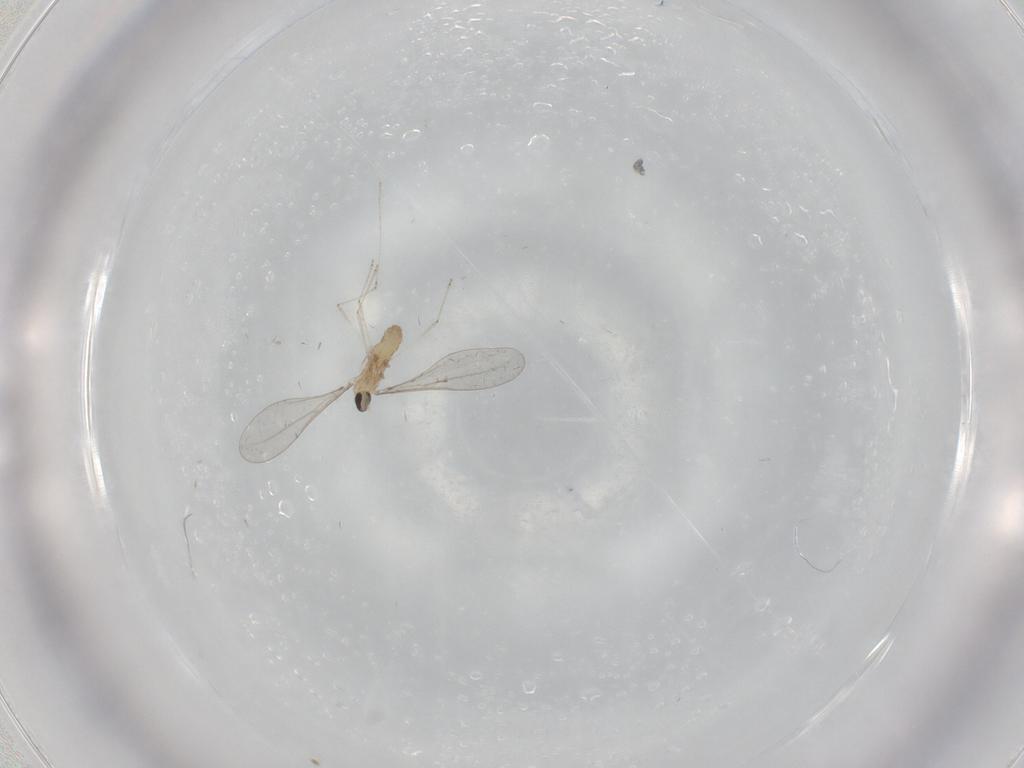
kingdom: Animalia
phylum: Arthropoda
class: Insecta
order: Diptera
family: Cecidomyiidae
